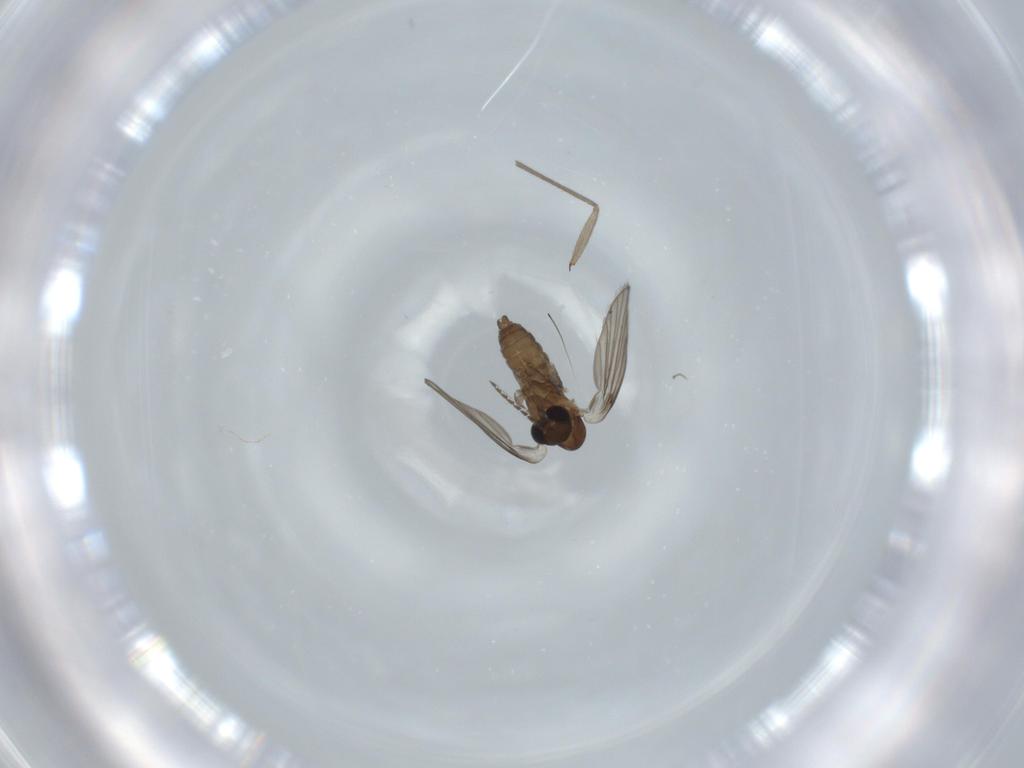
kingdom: Animalia
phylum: Arthropoda
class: Insecta
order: Diptera
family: Psychodidae
